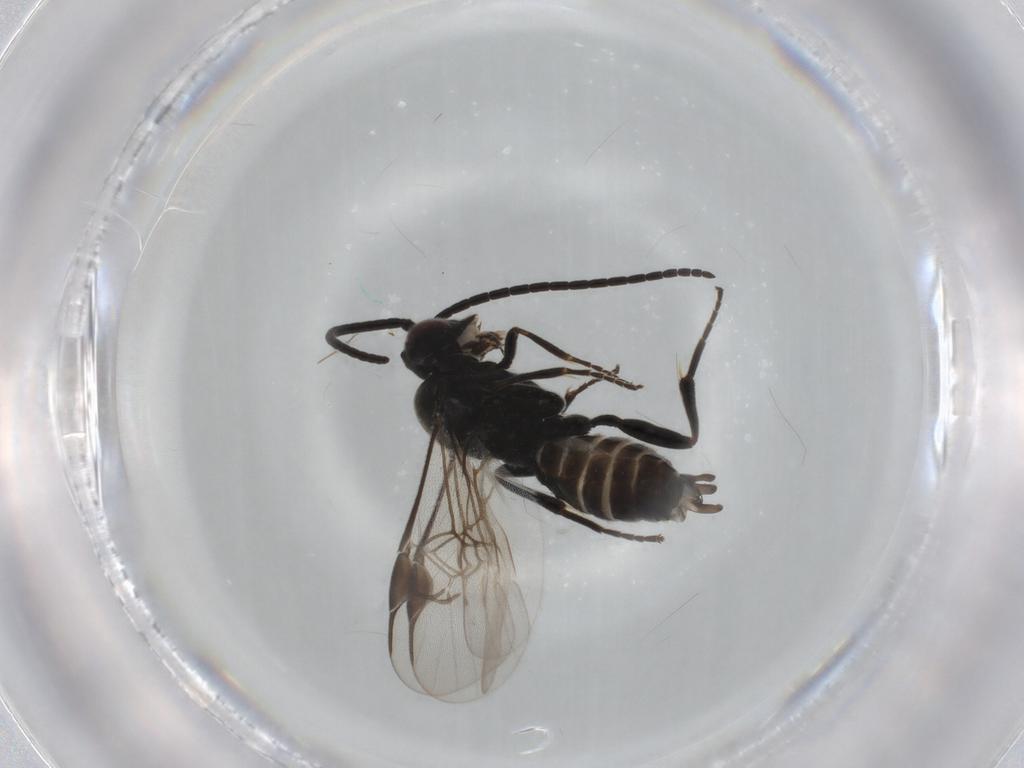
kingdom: Animalia
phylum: Arthropoda
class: Insecta
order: Hymenoptera
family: Braconidae
